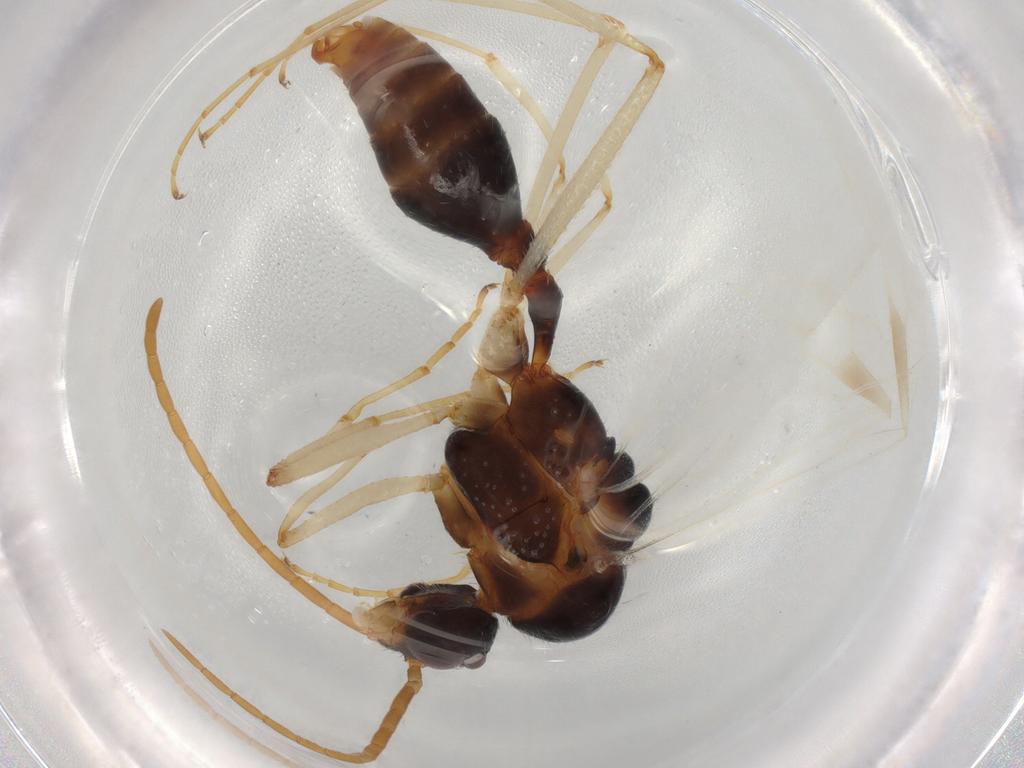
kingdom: Animalia
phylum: Arthropoda
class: Insecta
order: Hymenoptera
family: Formicidae
